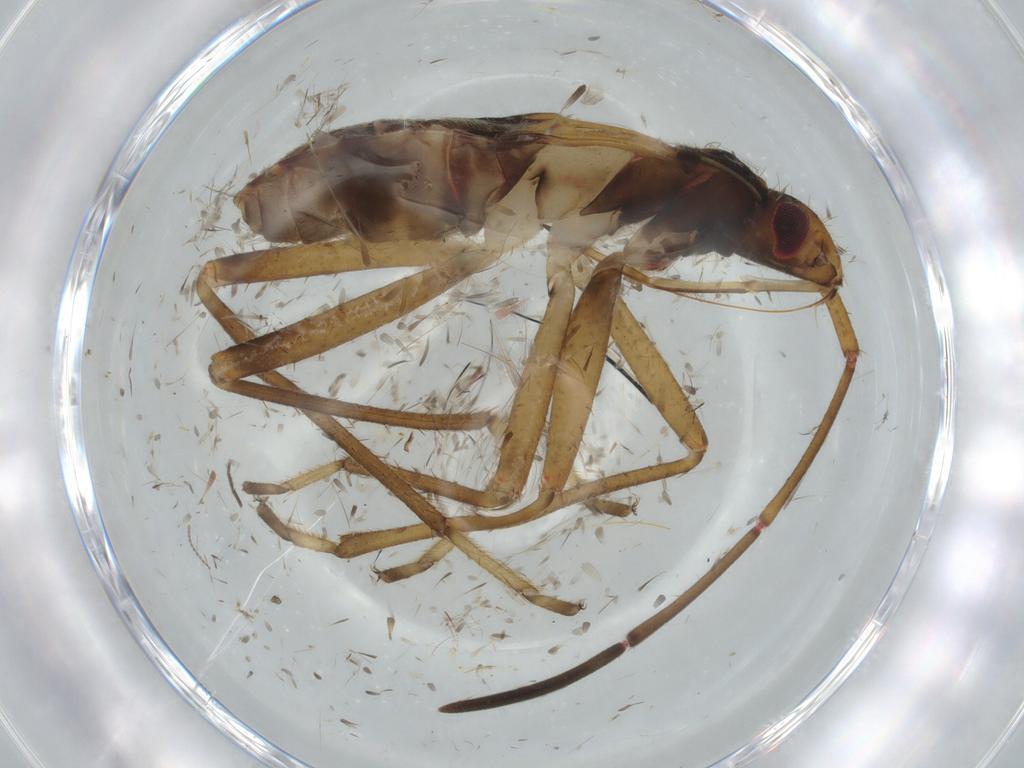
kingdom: Animalia
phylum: Arthropoda
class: Insecta
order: Hemiptera
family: Rhyparochromidae
